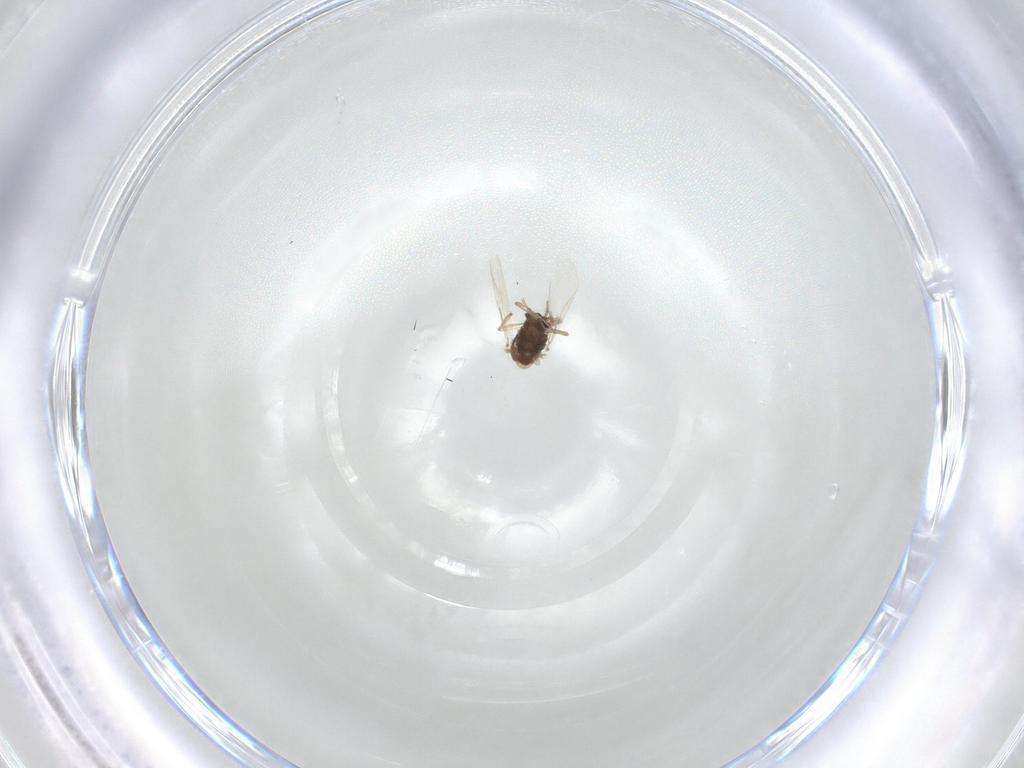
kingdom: Animalia
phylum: Arthropoda
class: Insecta
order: Diptera
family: Ceratopogonidae
